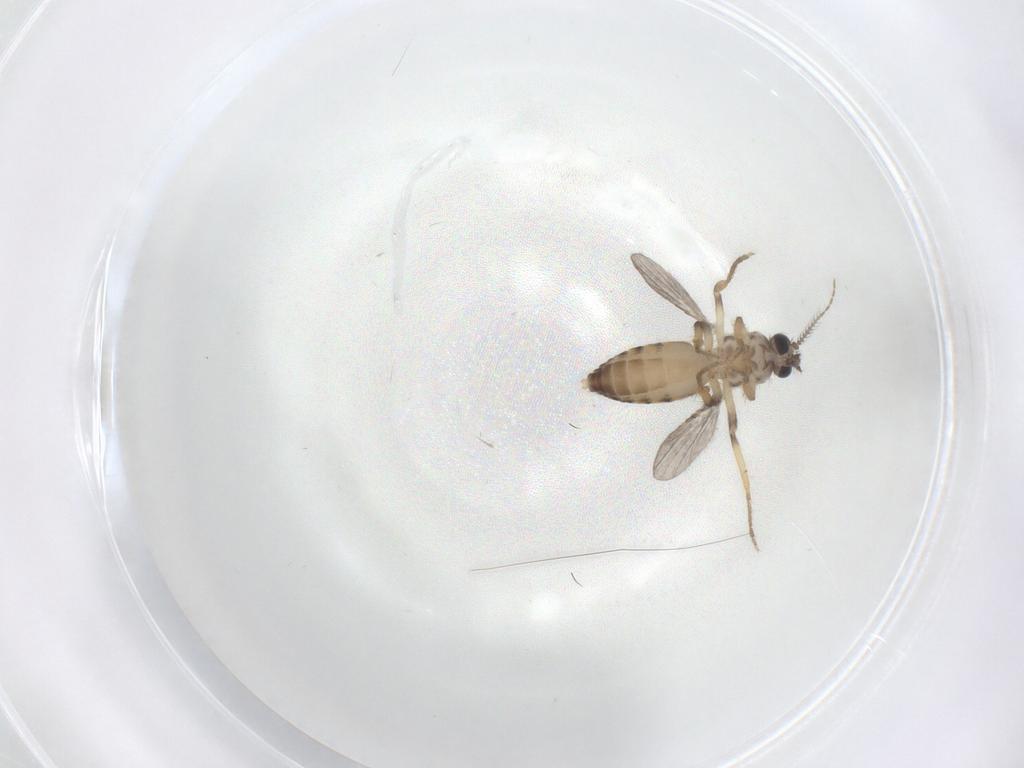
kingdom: Animalia
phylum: Arthropoda
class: Insecta
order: Diptera
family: Ceratopogonidae
